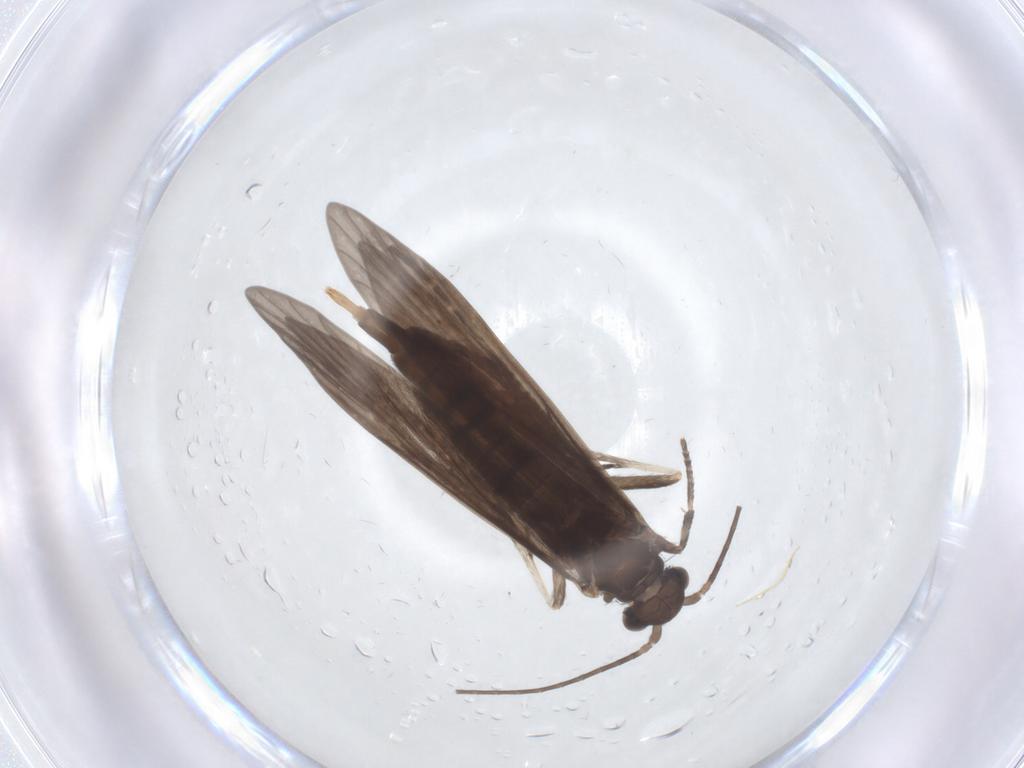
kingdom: Animalia
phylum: Arthropoda
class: Insecta
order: Trichoptera
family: Xiphocentronidae
